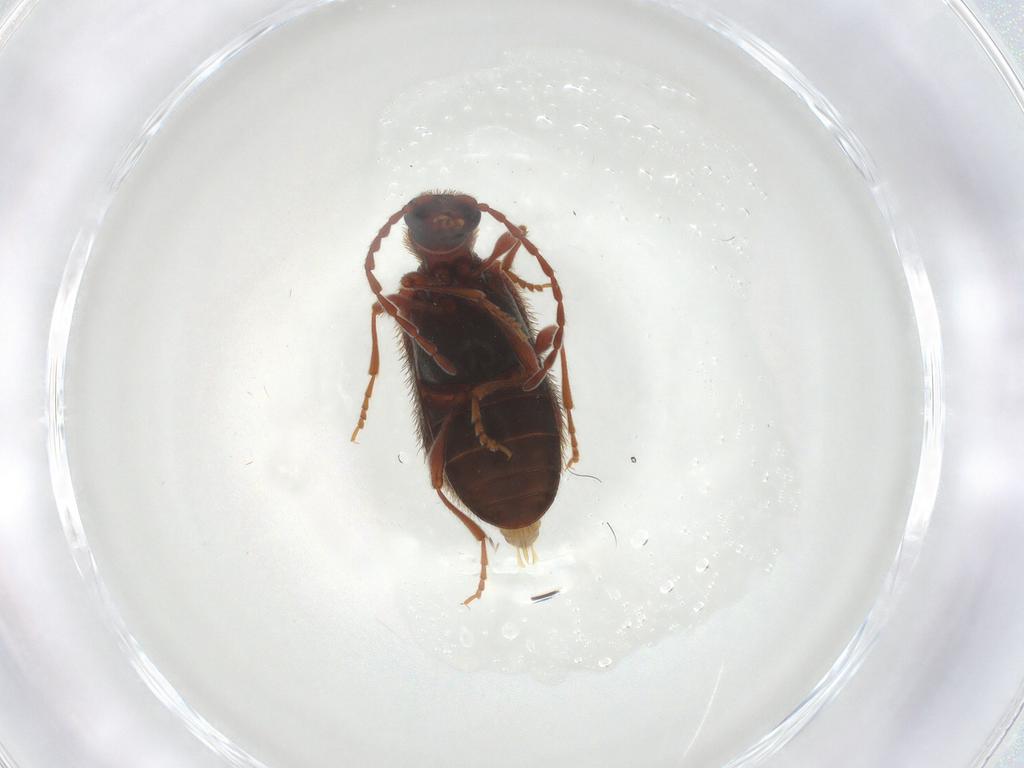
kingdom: Animalia
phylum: Arthropoda
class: Insecta
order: Coleoptera
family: Ptinidae
